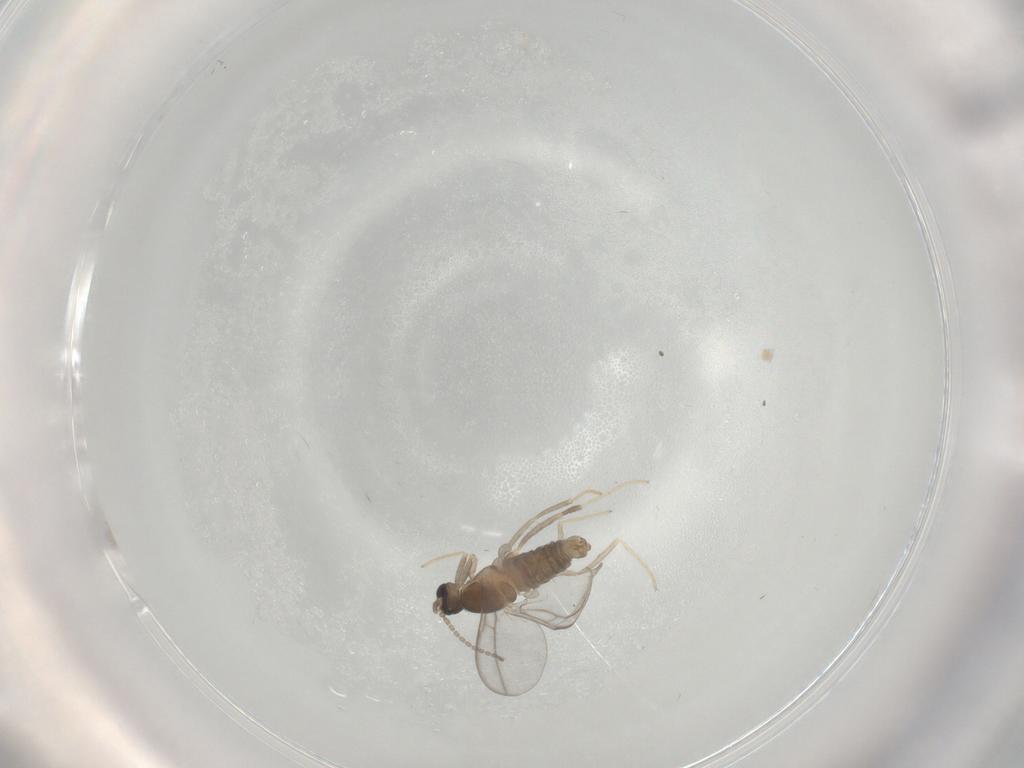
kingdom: Animalia
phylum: Arthropoda
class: Insecta
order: Diptera
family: Cecidomyiidae
